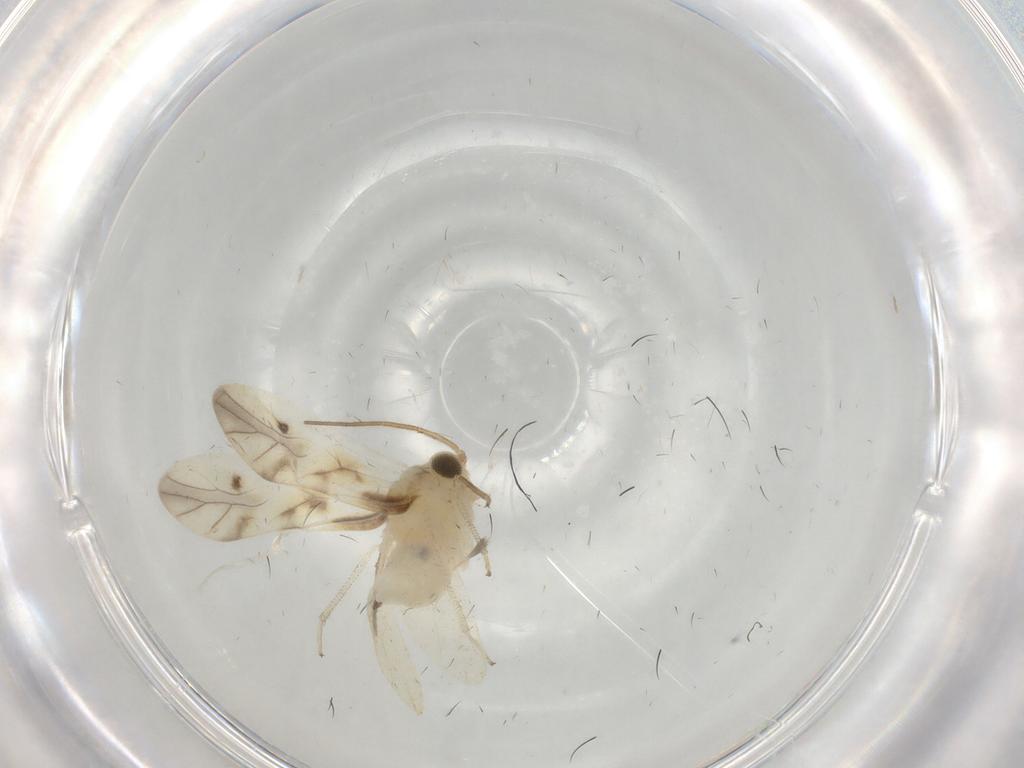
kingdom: Animalia
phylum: Arthropoda
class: Insecta
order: Psocodea
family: Caeciliusidae
